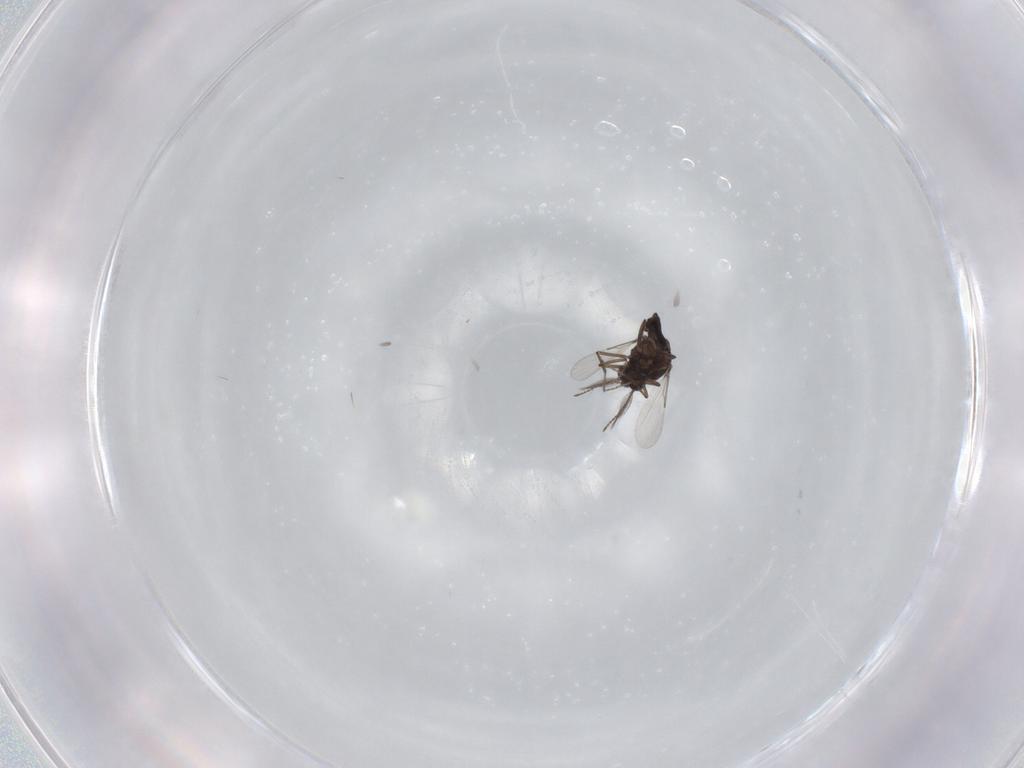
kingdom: Animalia
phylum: Arthropoda
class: Insecta
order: Diptera
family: Ceratopogonidae
